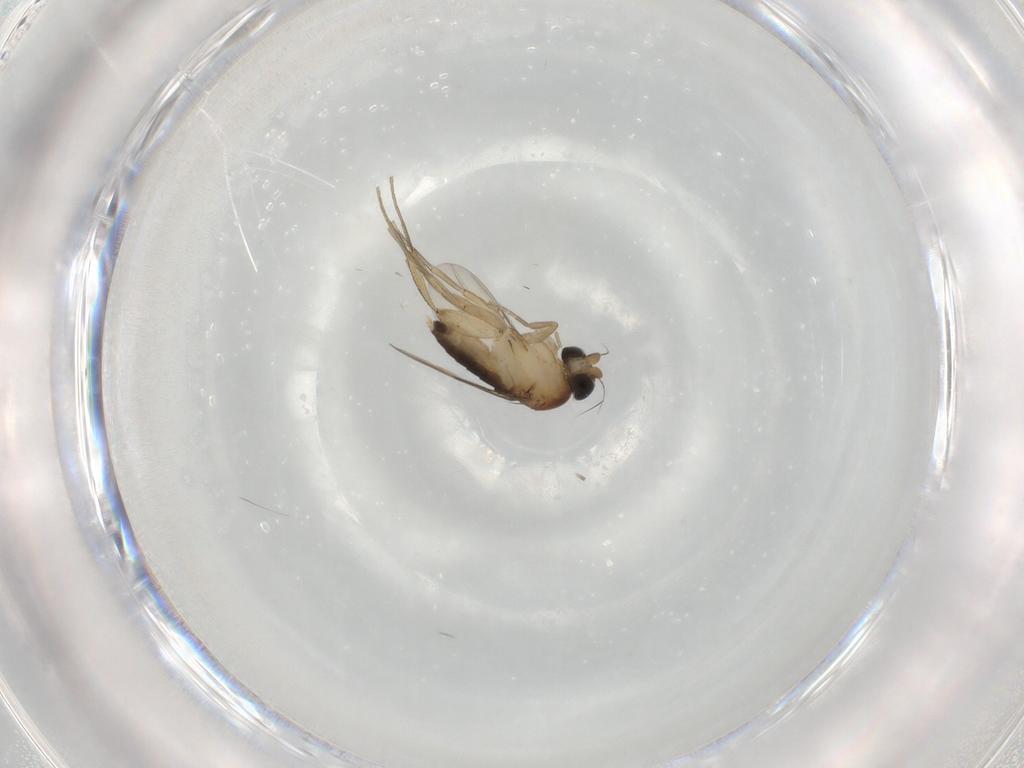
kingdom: Animalia
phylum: Arthropoda
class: Insecta
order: Diptera
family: Phoridae
